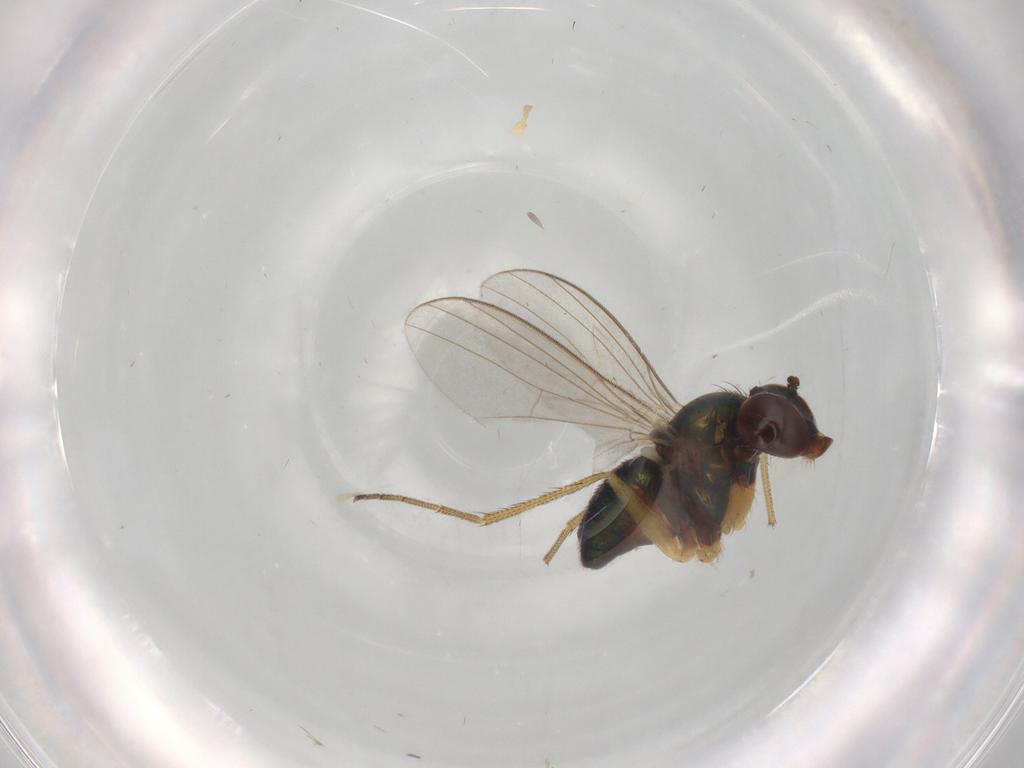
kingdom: Animalia
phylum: Arthropoda
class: Insecta
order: Diptera
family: Dolichopodidae
